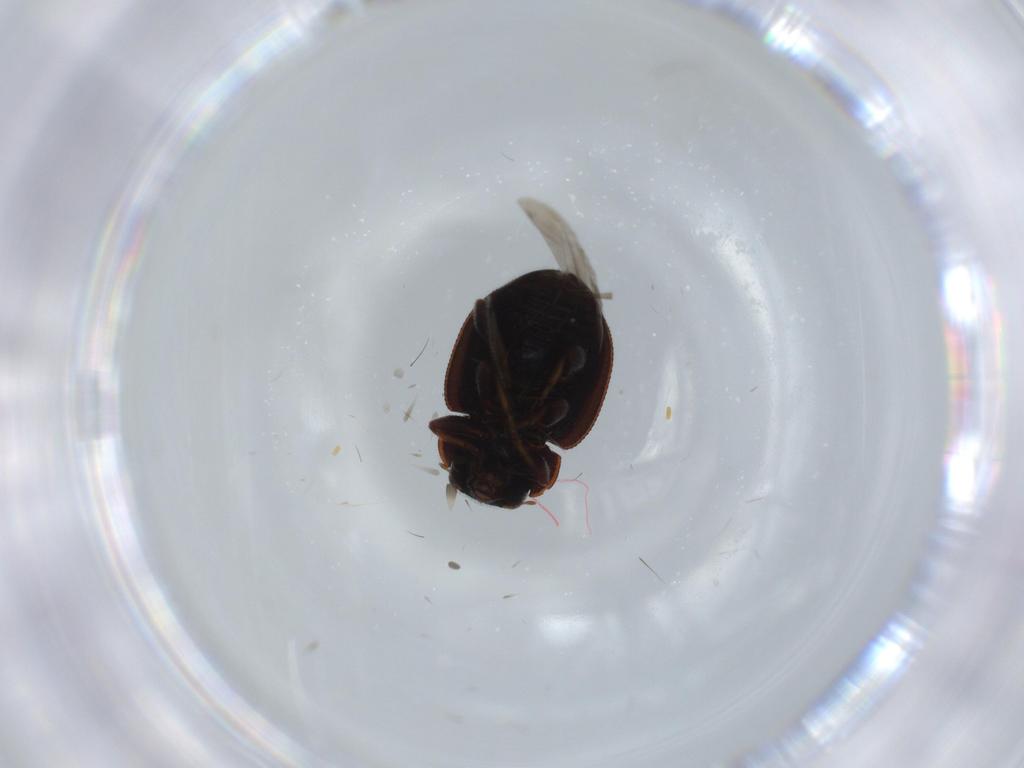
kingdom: Animalia
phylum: Arthropoda
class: Insecta
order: Coleoptera
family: Coccinellidae
